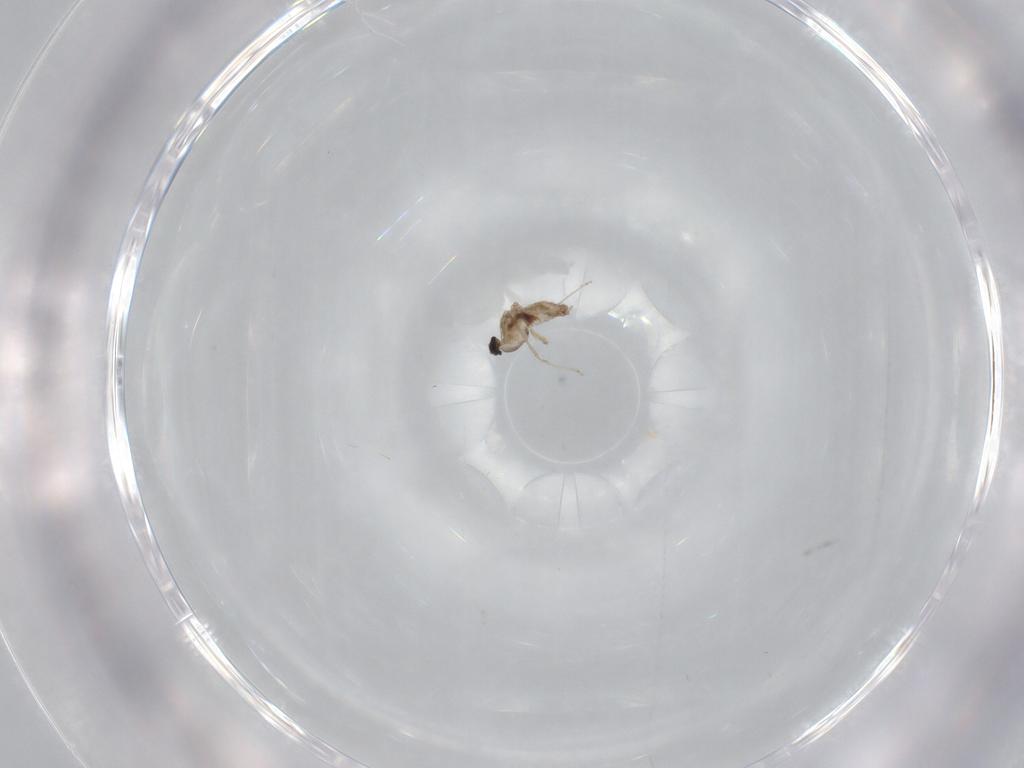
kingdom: Animalia
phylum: Arthropoda
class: Insecta
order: Diptera
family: Cecidomyiidae
